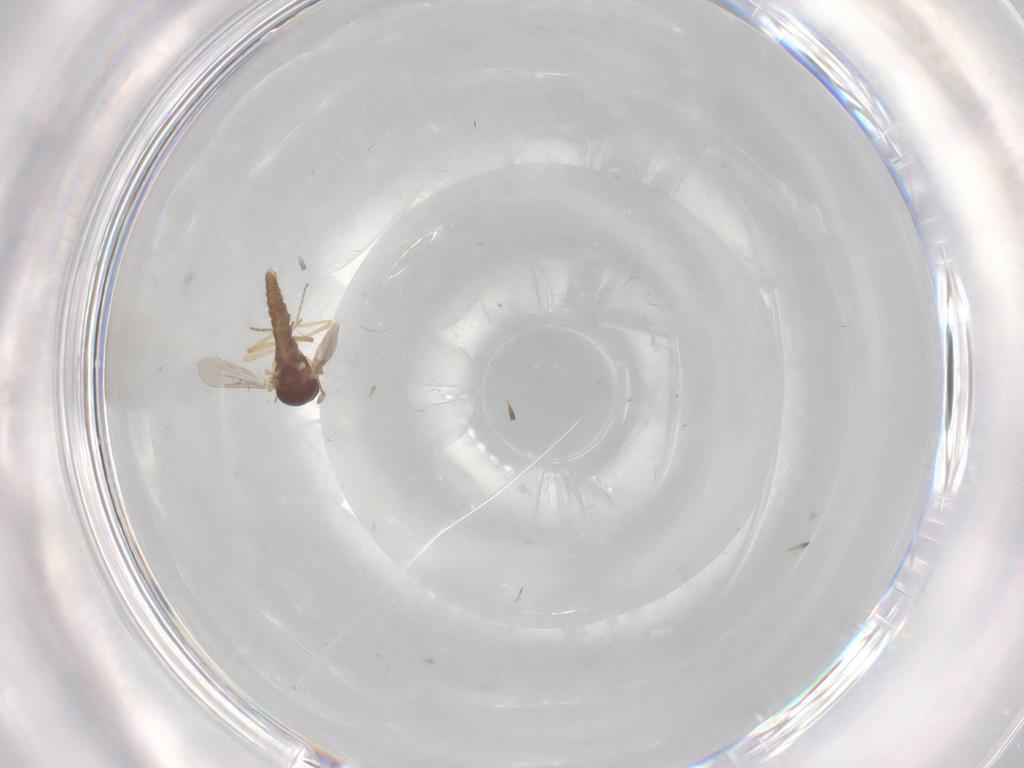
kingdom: Animalia
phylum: Arthropoda
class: Insecta
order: Diptera
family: Ceratopogonidae
